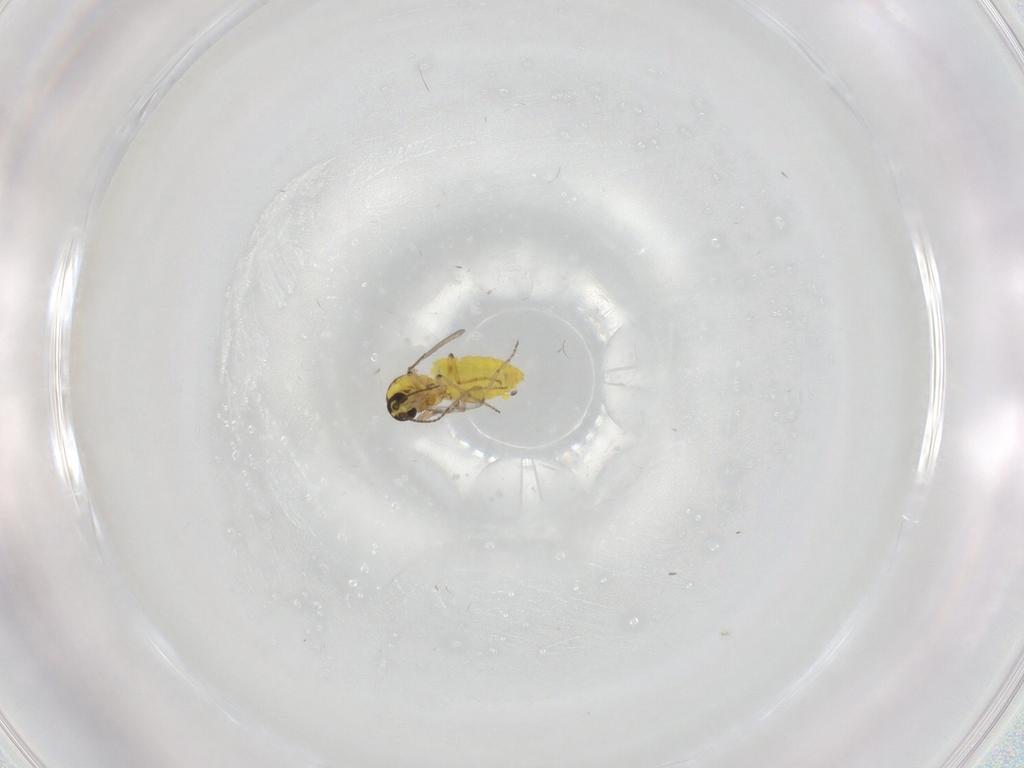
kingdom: Animalia
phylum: Arthropoda
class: Insecta
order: Diptera
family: Ceratopogonidae
